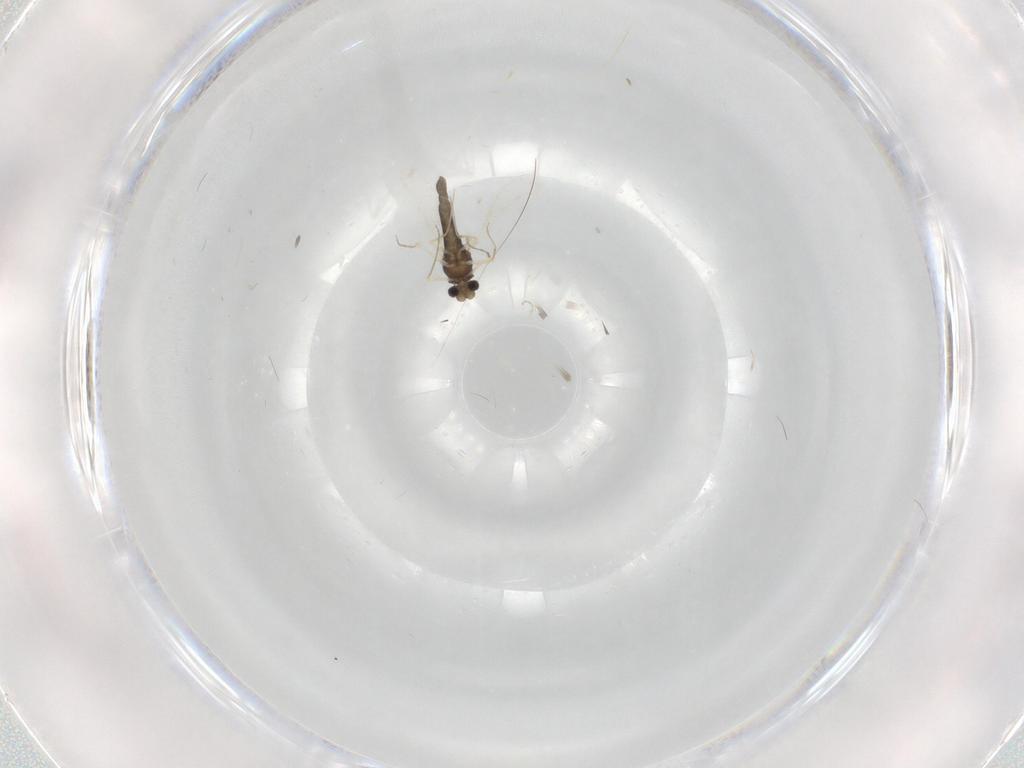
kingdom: Animalia
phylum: Arthropoda
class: Insecta
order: Diptera
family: Chironomidae
